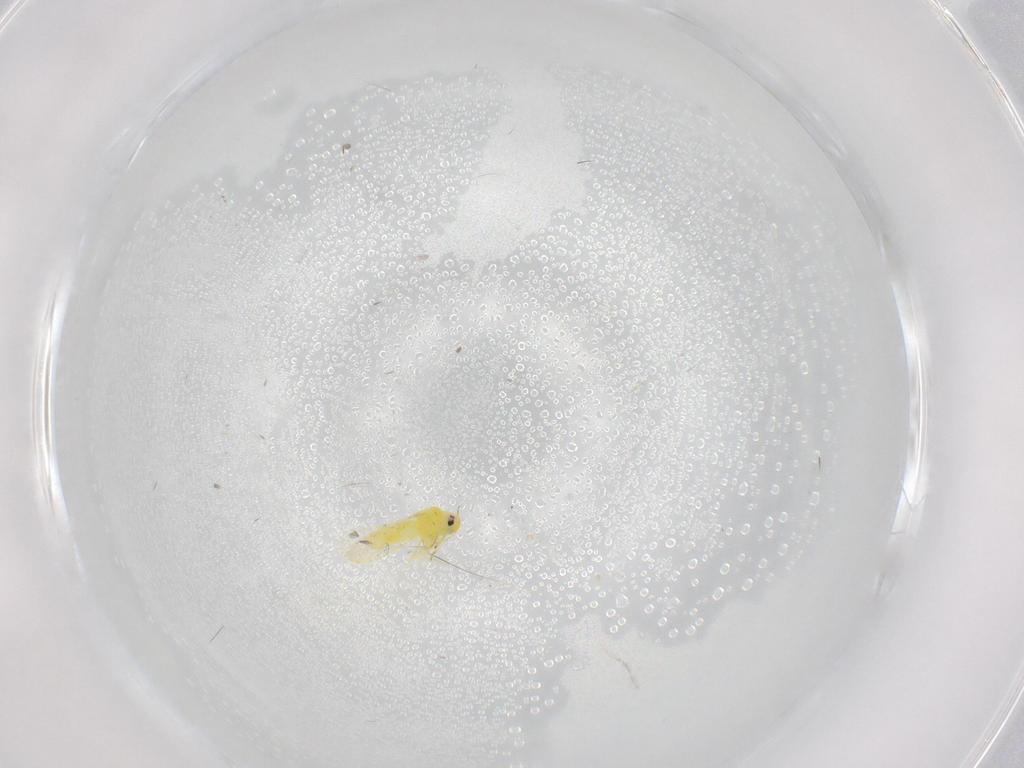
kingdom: Animalia
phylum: Arthropoda
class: Insecta
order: Hemiptera
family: Aleyrodidae
